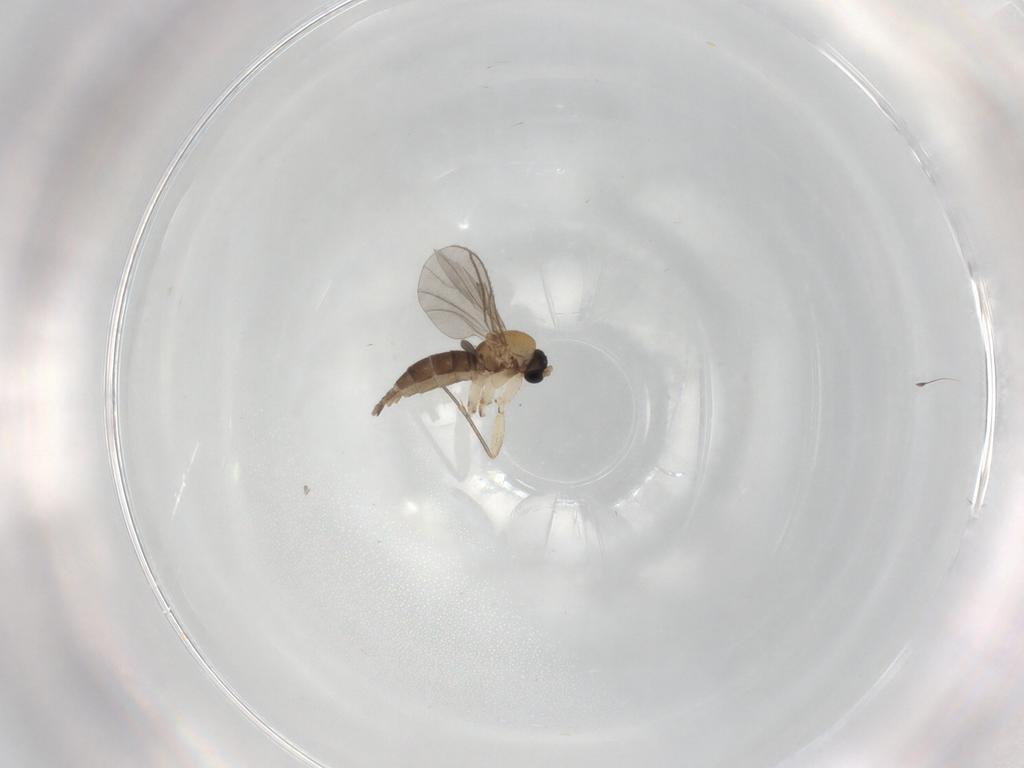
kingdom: Animalia
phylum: Arthropoda
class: Insecta
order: Diptera
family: Sciaridae
